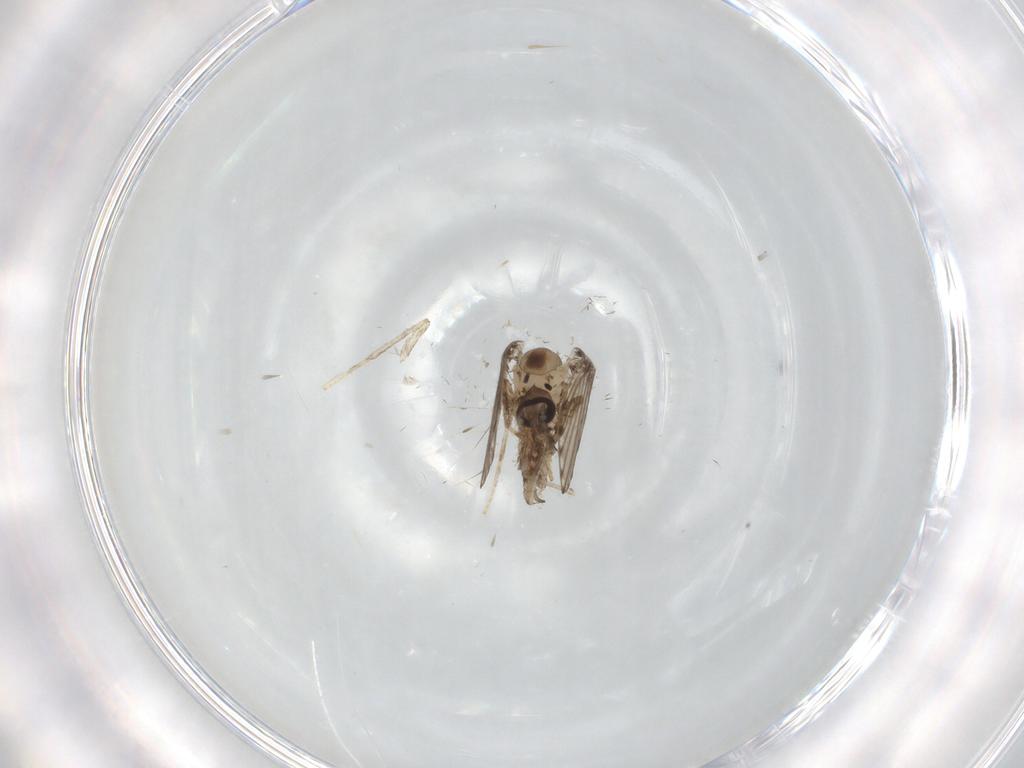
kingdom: Animalia
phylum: Arthropoda
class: Insecta
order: Diptera
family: Psychodidae
